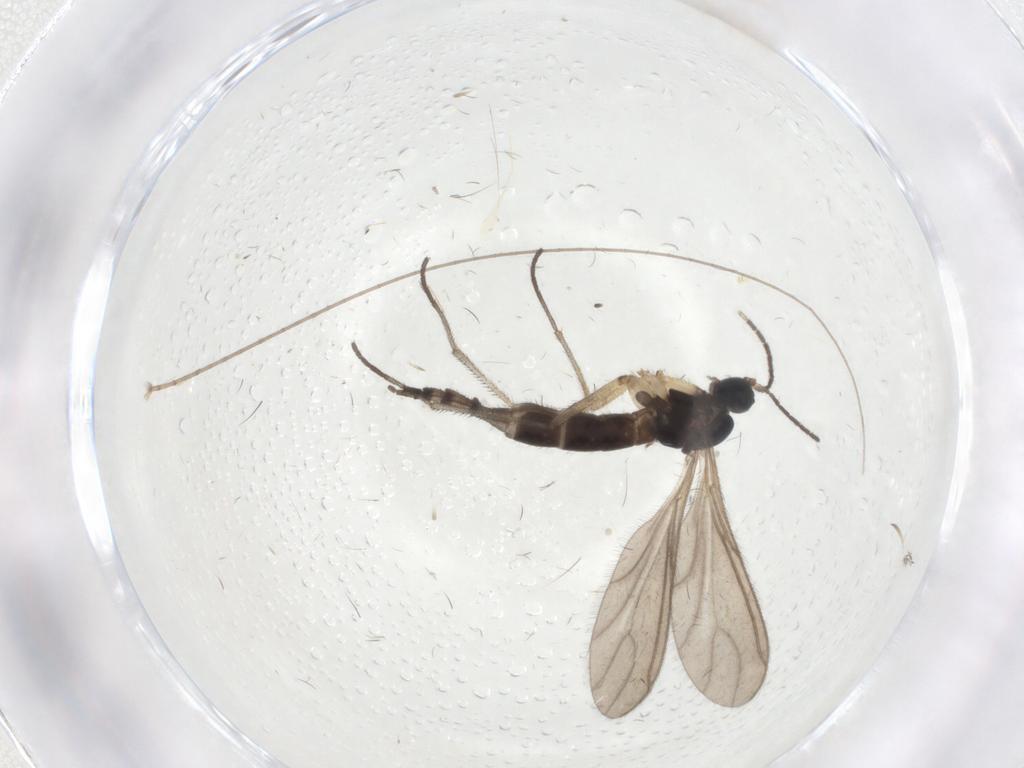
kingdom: Animalia
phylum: Arthropoda
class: Insecta
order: Diptera
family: Sciaridae
